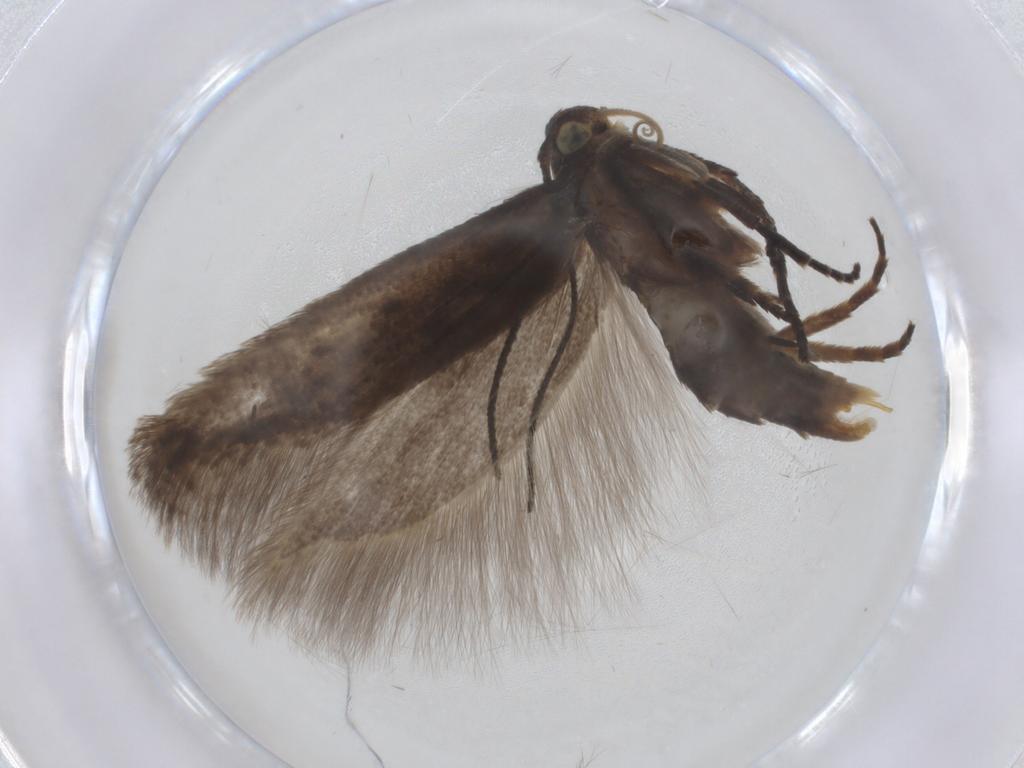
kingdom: Animalia
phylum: Arthropoda
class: Insecta
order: Lepidoptera
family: Gelechiidae
